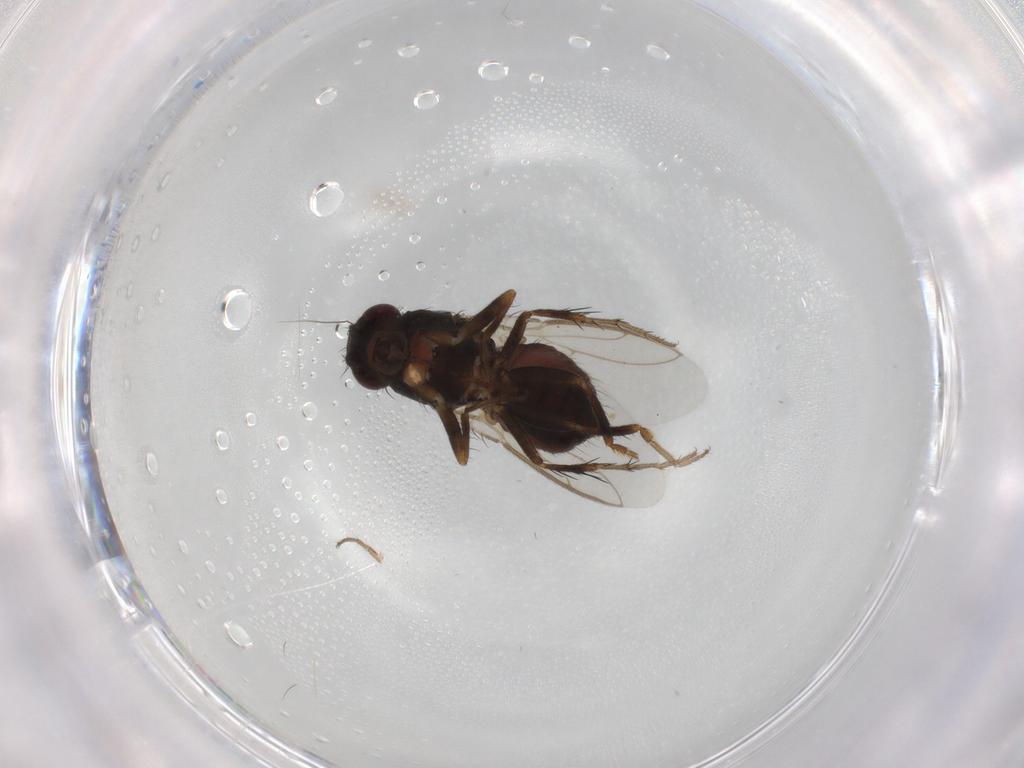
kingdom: Animalia
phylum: Arthropoda
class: Insecta
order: Diptera
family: Sphaeroceridae
